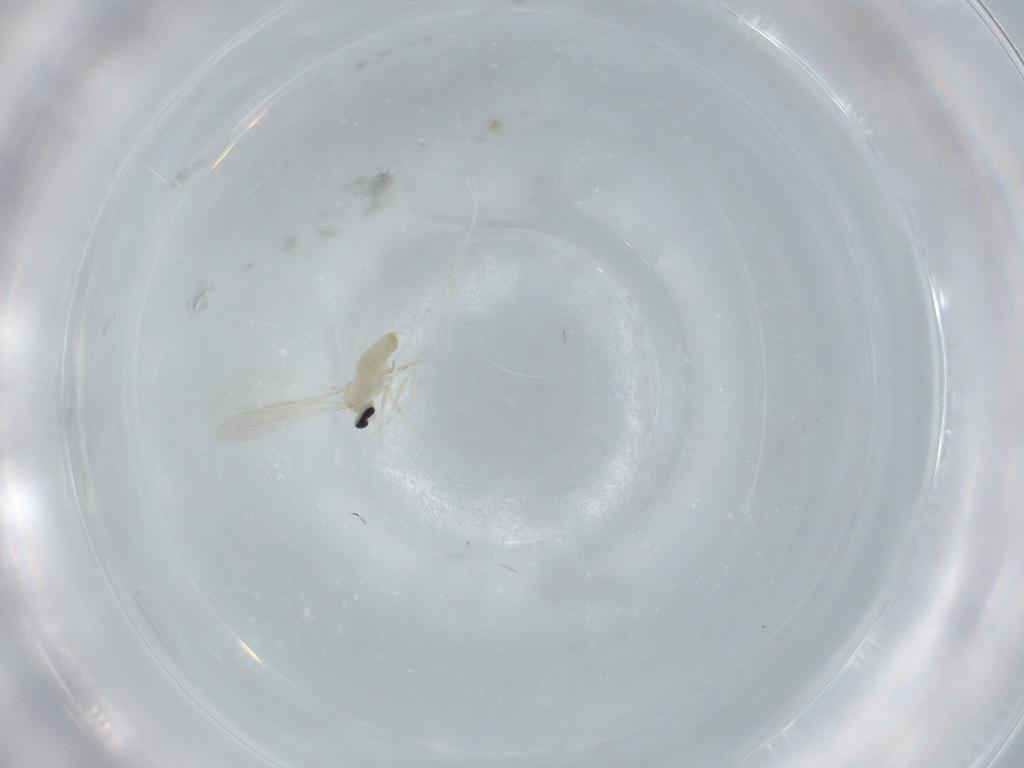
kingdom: Animalia
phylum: Arthropoda
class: Insecta
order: Diptera
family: Cecidomyiidae
